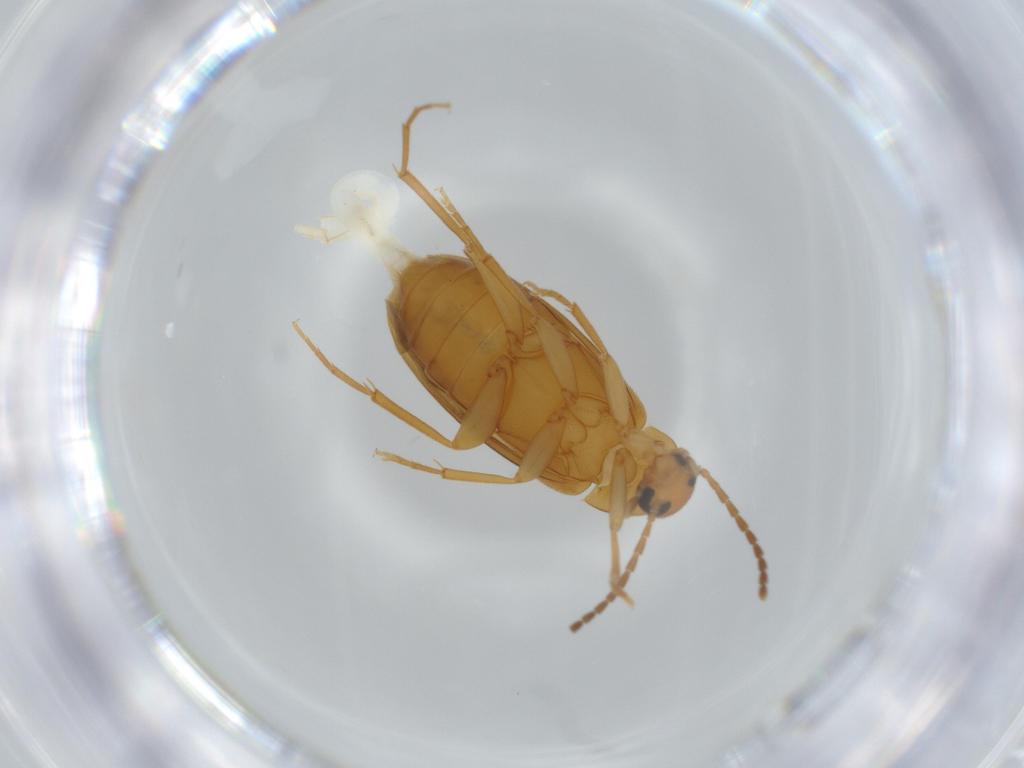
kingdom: Animalia
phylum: Arthropoda
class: Insecta
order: Coleoptera
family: Scraptiidae
